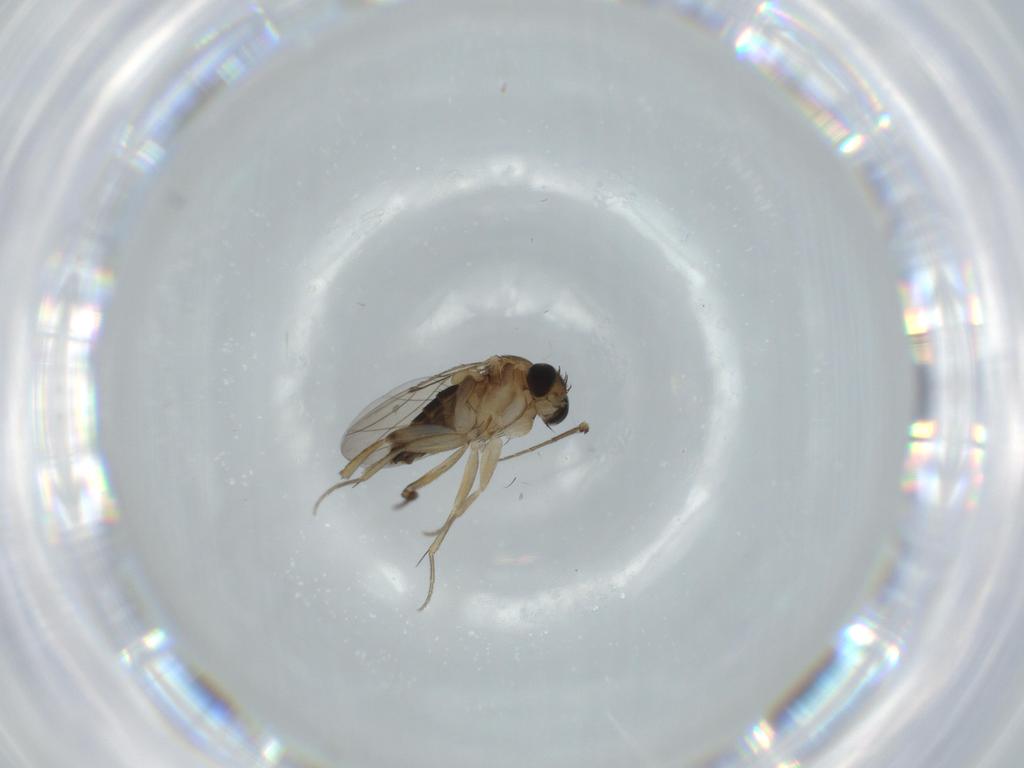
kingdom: Animalia
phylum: Arthropoda
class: Insecta
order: Diptera
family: Phoridae
